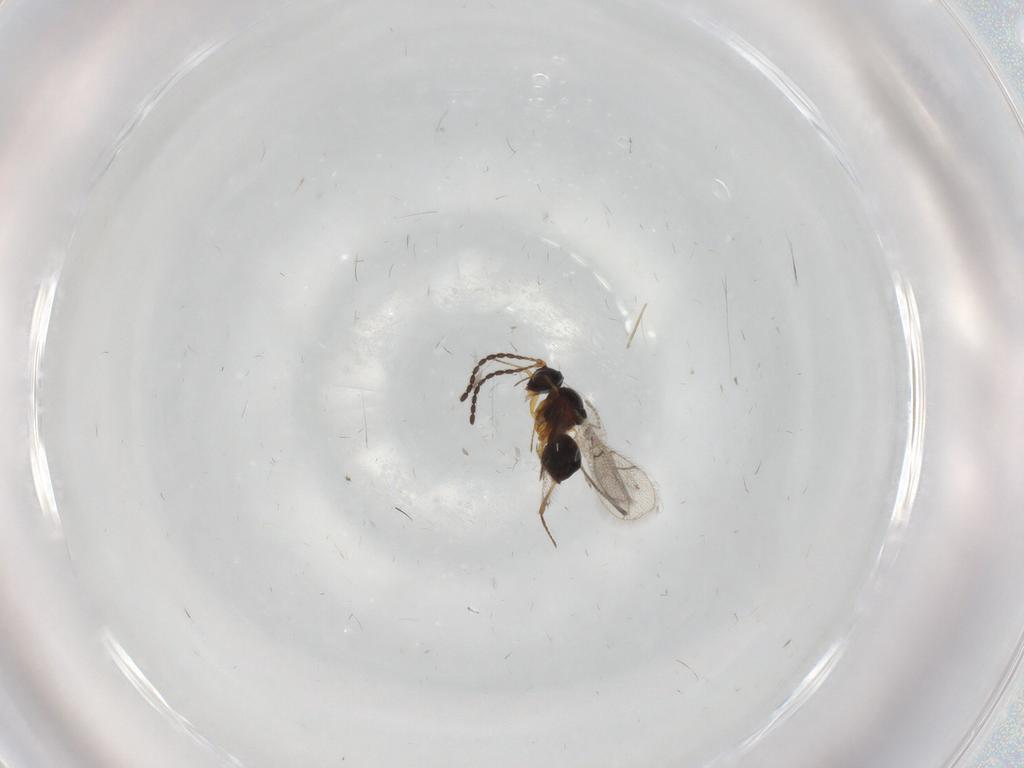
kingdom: Animalia
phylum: Arthropoda
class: Insecta
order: Hymenoptera
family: Figitidae
